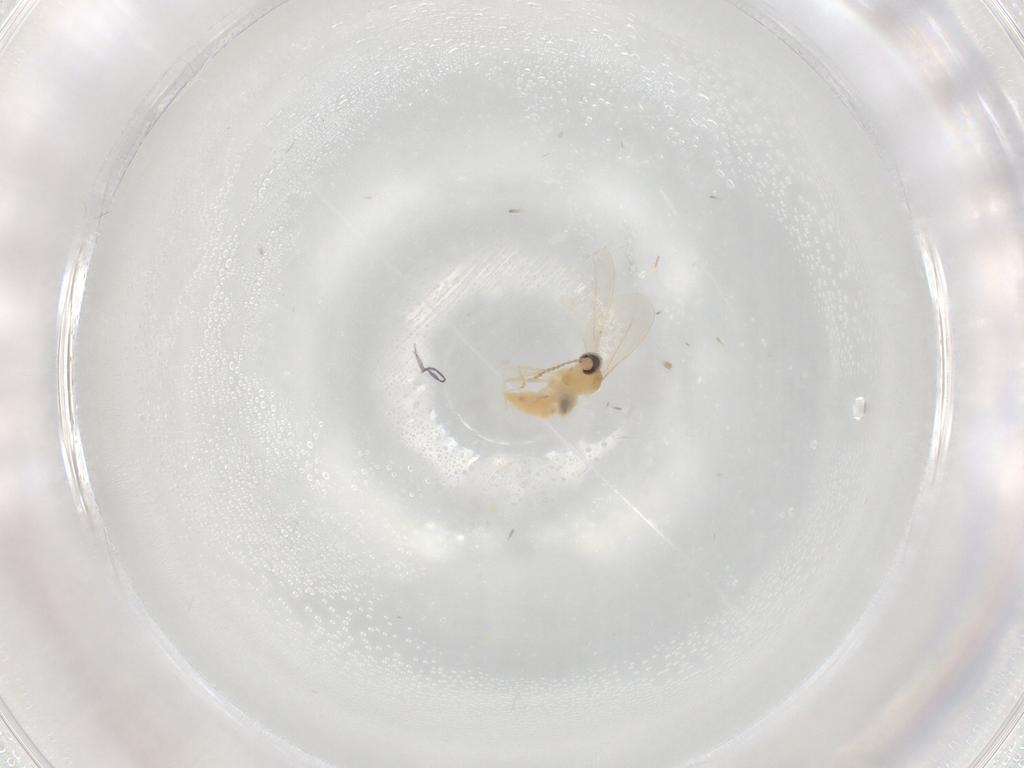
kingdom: Animalia
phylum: Arthropoda
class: Insecta
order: Diptera
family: Cecidomyiidae
